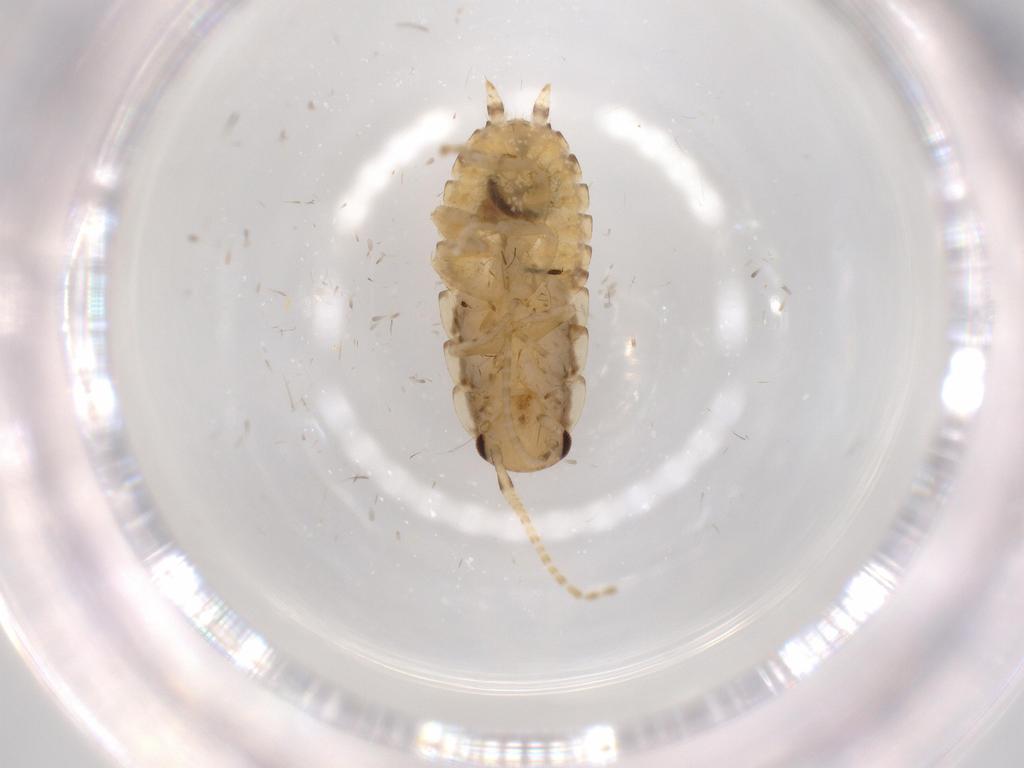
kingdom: Animalia
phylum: Arthropoda
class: Insecta
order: Blattodea
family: Ectobiidae
